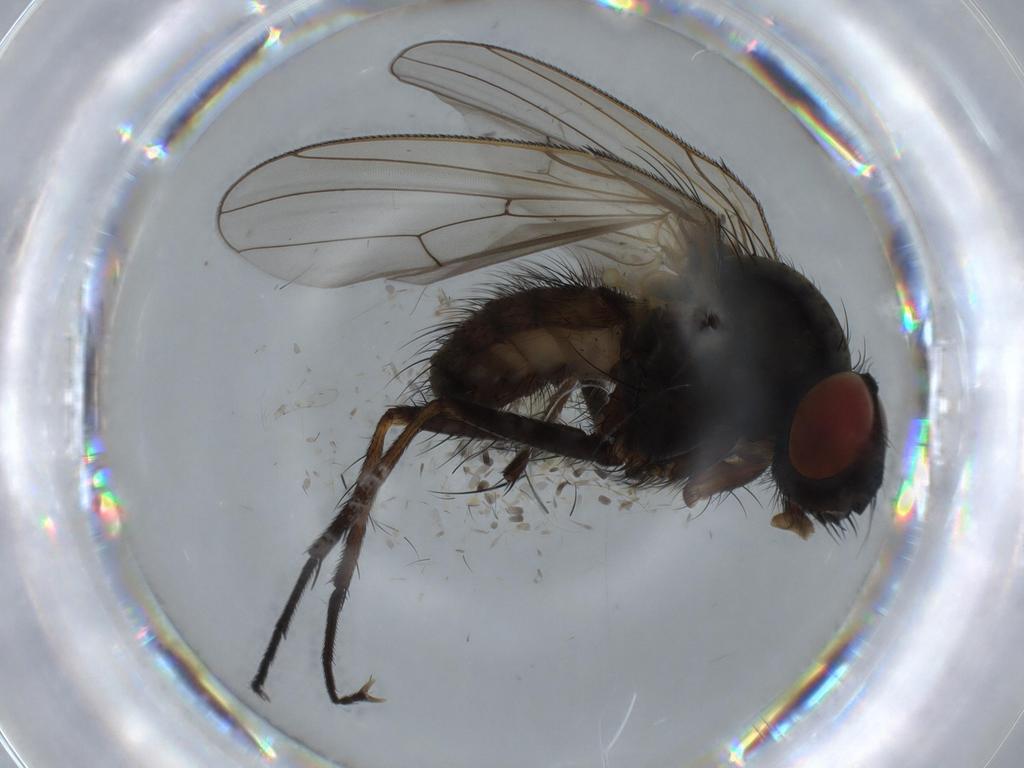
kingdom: Animalia
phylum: Arthropoda
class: Insecta
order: Diptera
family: Anthomyiidae
